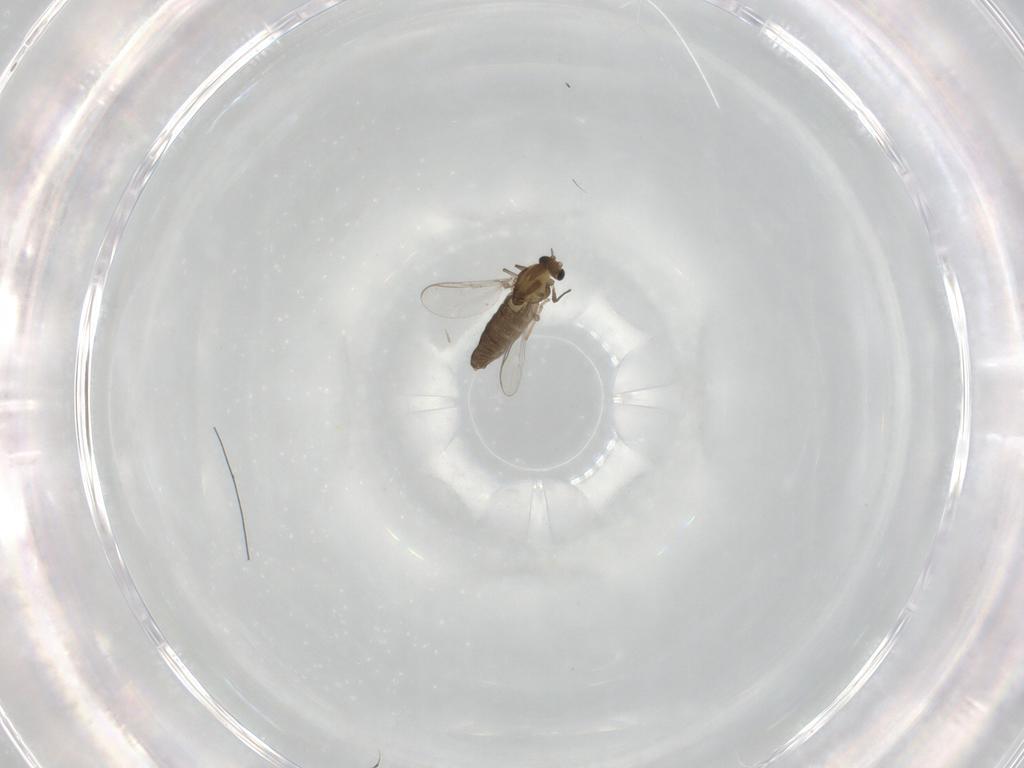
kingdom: Animalia
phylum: Arthropoda
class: Insecta
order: Diptera
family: Chironomidae
